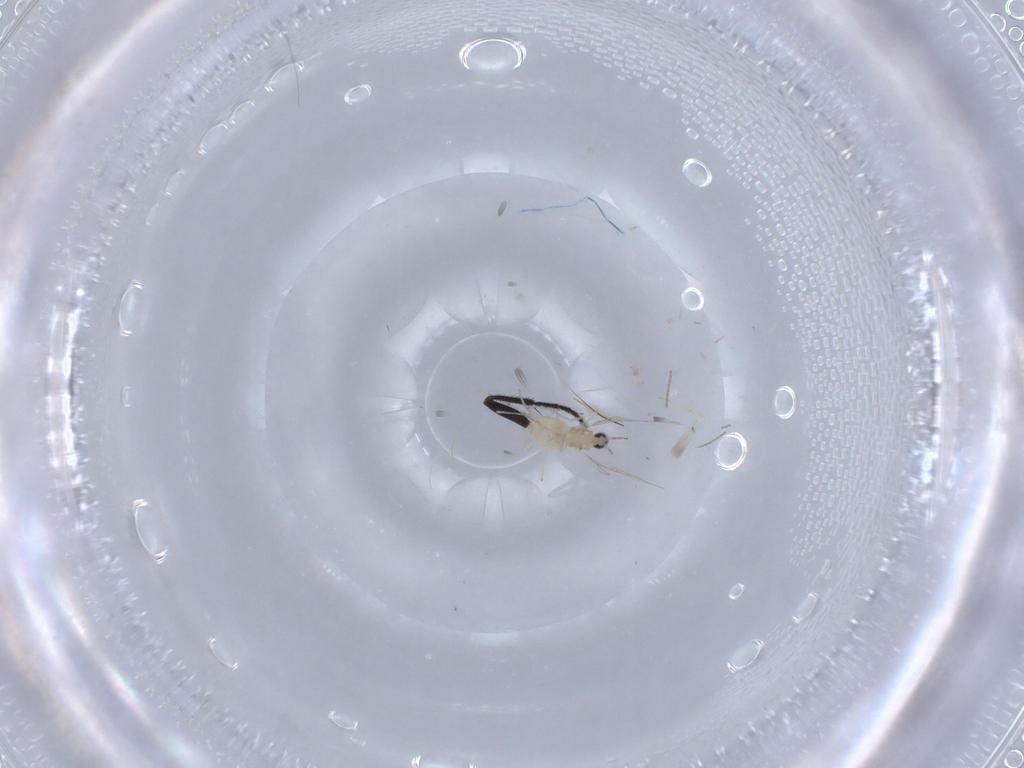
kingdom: Animalia
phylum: Arthropoda
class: Insecta
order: Diptera
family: Cecidomyiidae
